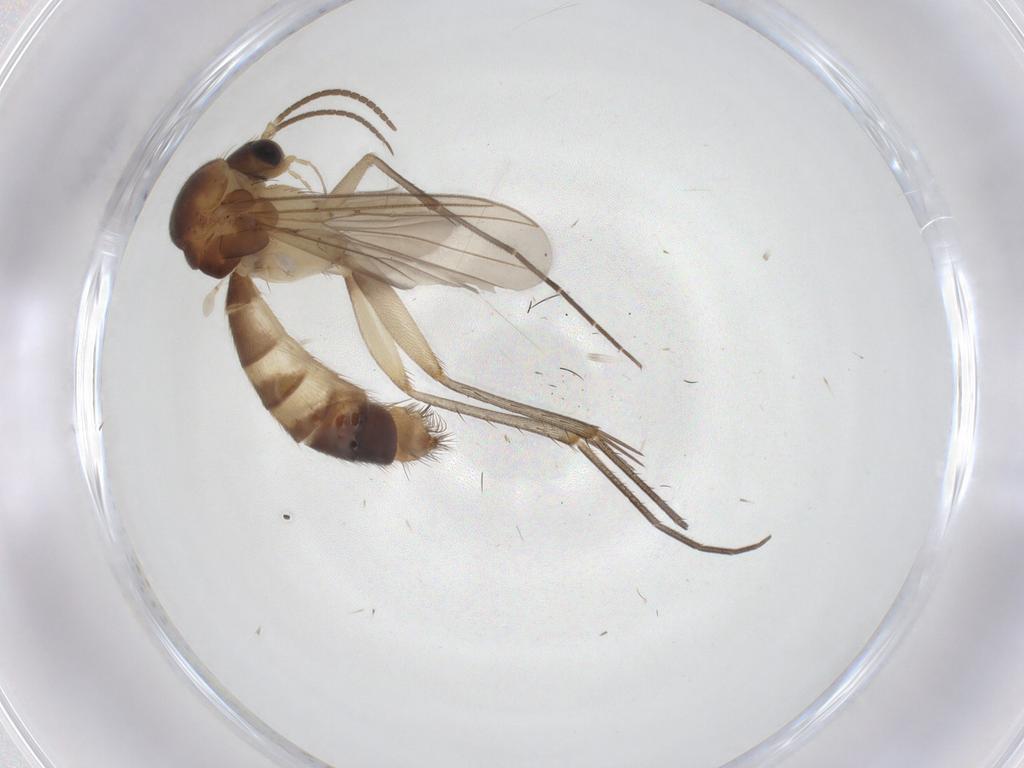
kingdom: Animalia
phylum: Arthropoda
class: Insecta
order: Diptera
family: Mycetophilidae
